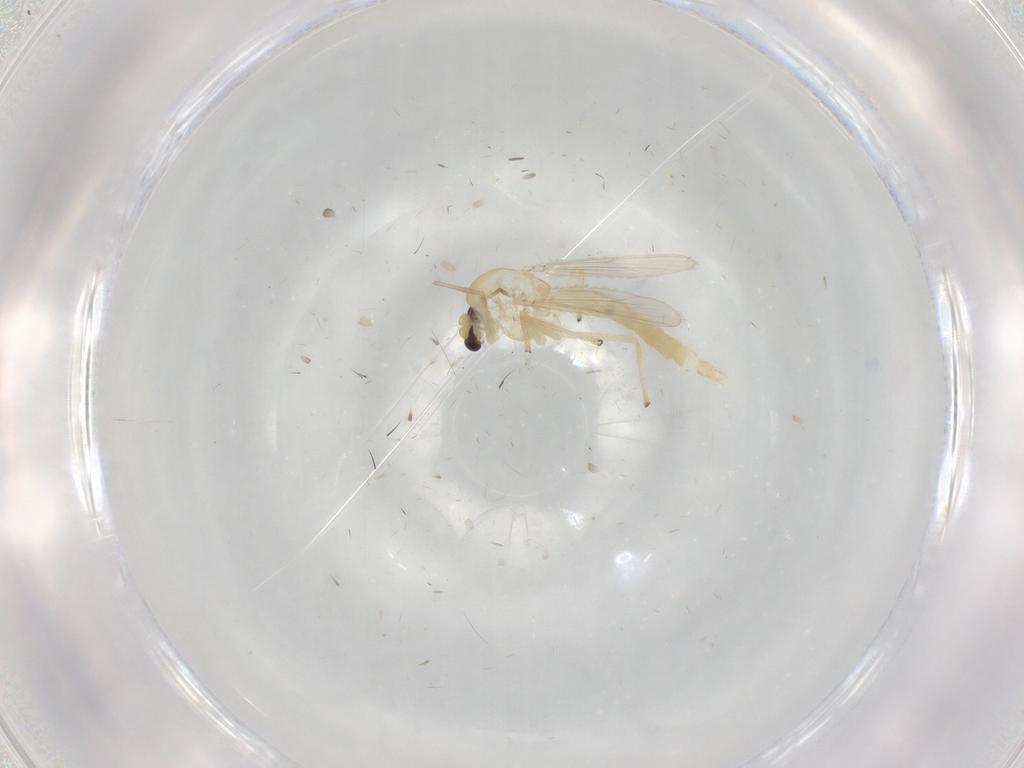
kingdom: Animalia
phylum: Arthropoda
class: Insecta
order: Diptera
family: Chironomidae
